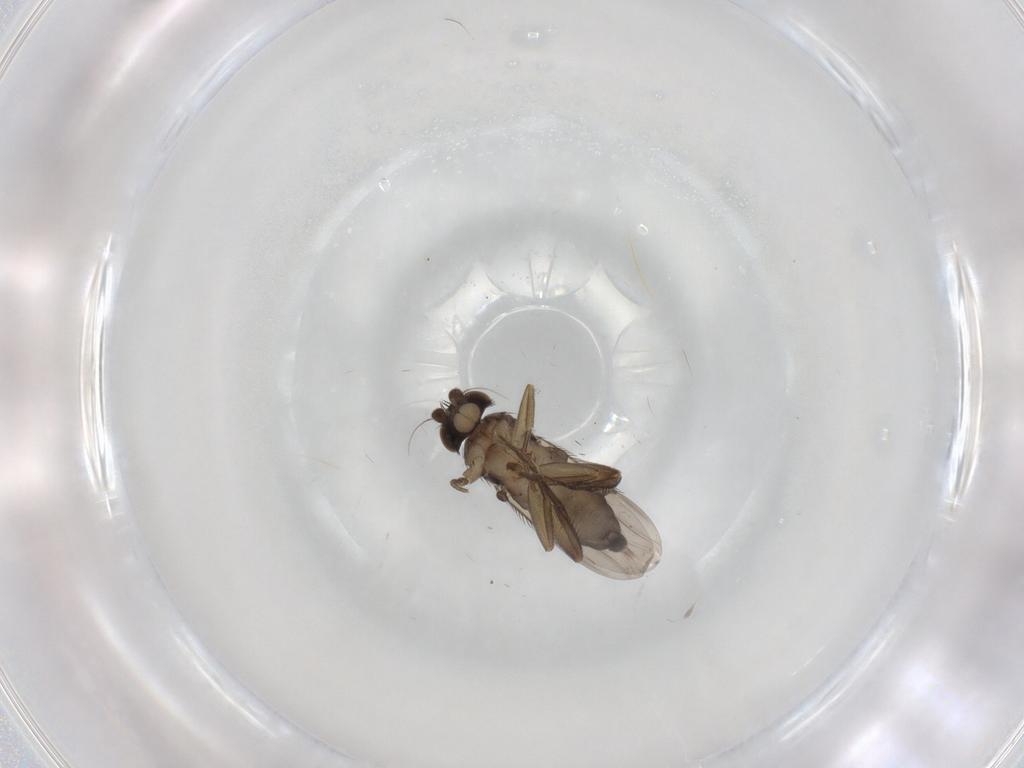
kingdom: Animalia
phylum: Arthropoda
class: Insecta
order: Diptera
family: Phoridae
